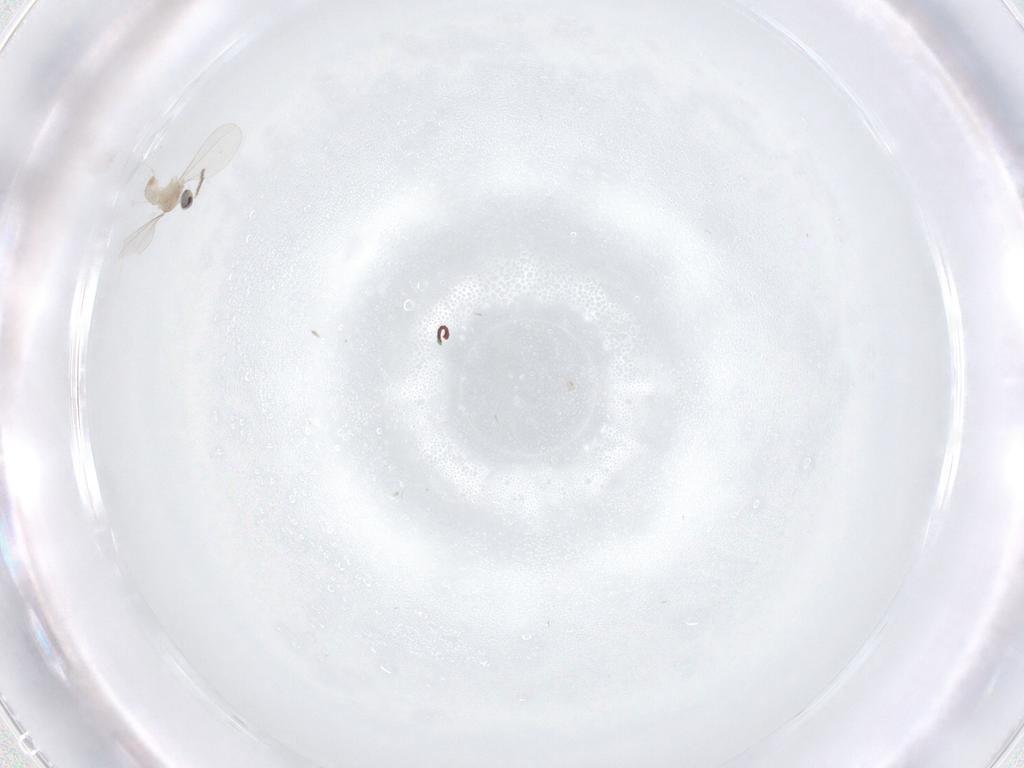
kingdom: Animalia
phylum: Arthropoda
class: Insecta
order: Diptera
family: Cecidomyiidae
